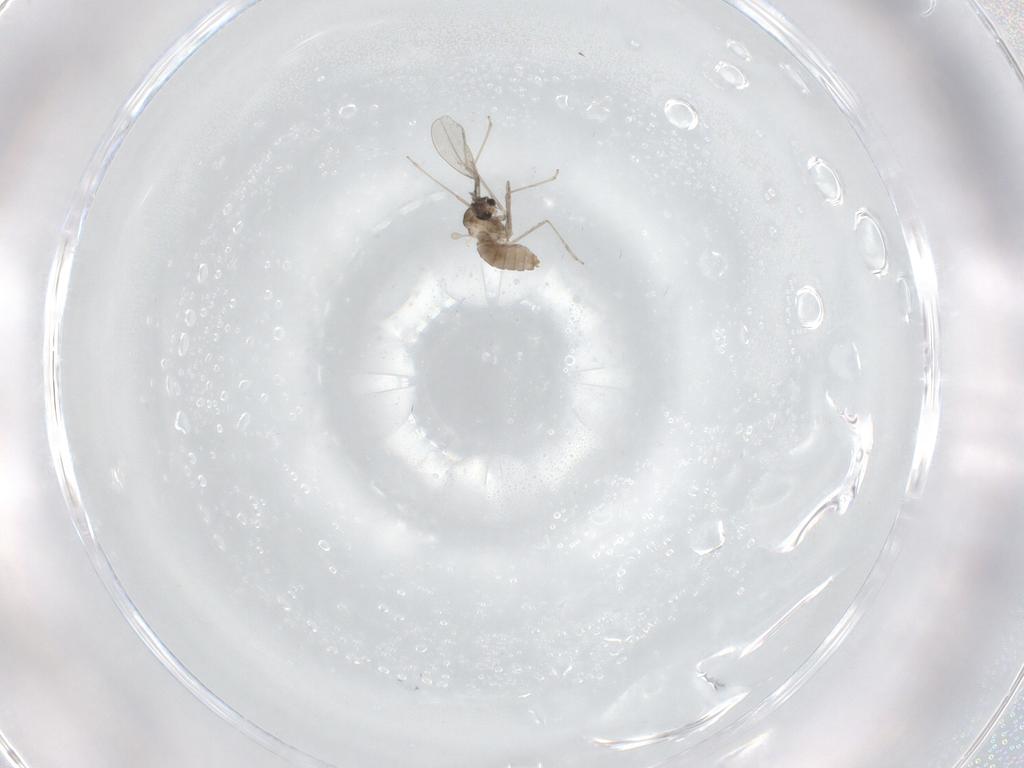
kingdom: Animalia
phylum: Arthropoda
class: Insecta
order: Diptera
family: Cecidomyiidae
